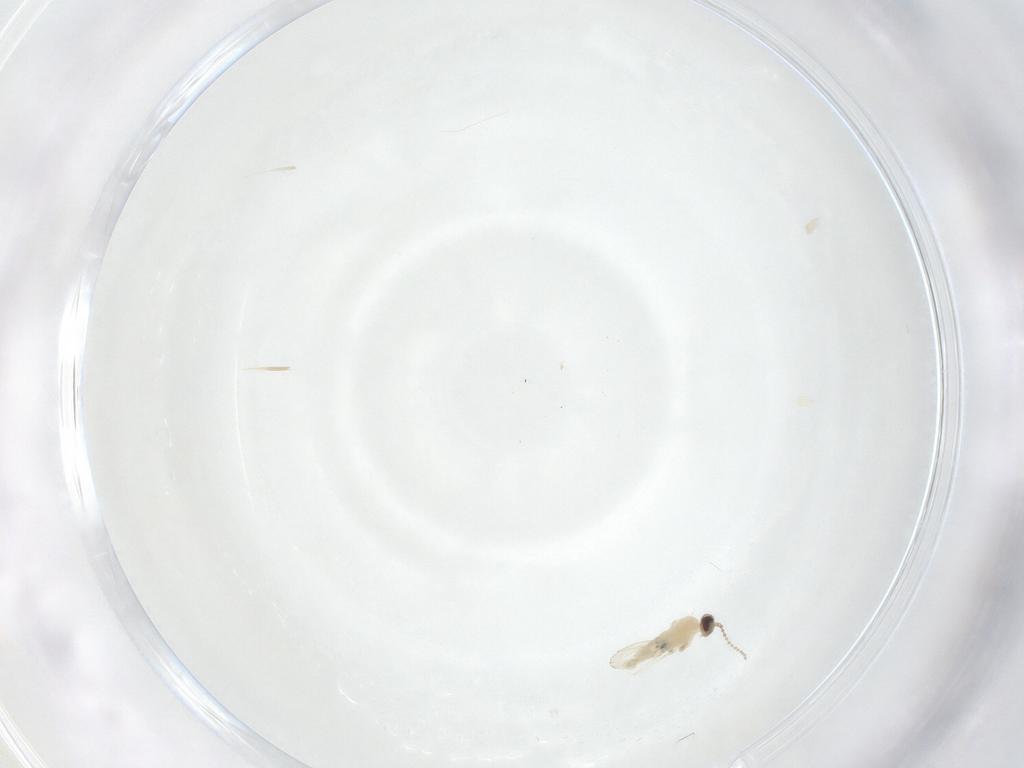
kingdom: Animalia
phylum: Arthropoda
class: Insecta
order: Diptera
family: Cecidomyiidae
